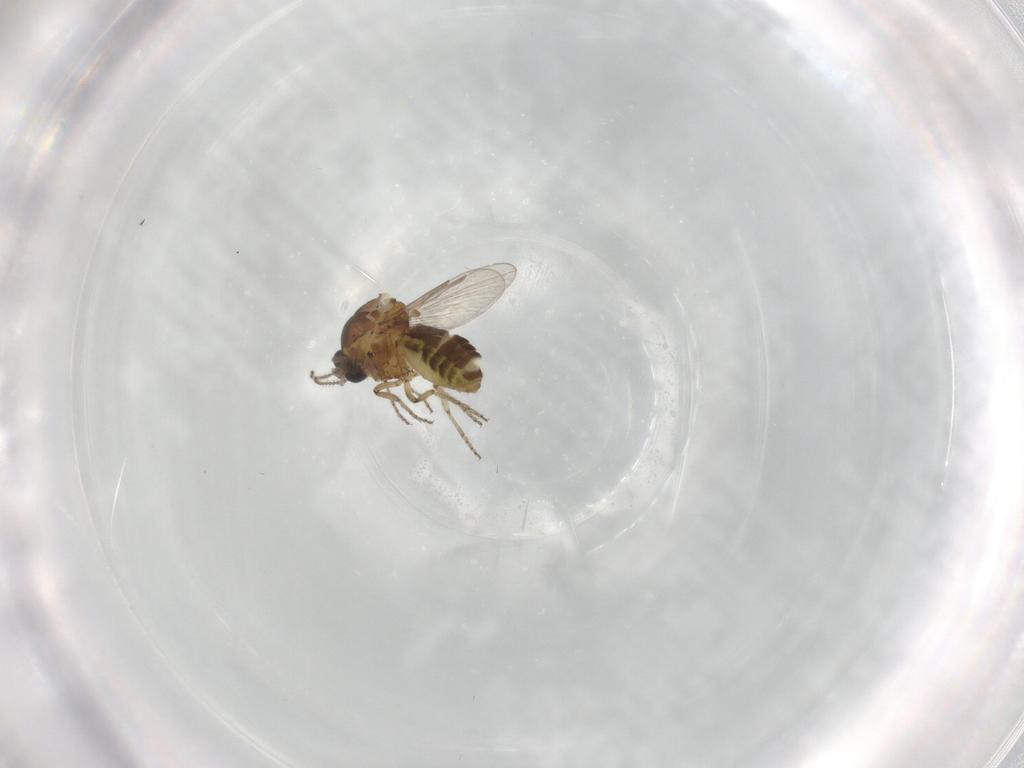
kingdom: Animalia
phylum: Arthropoda
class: Insecta
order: Diptera
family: Ceratopogonidae
